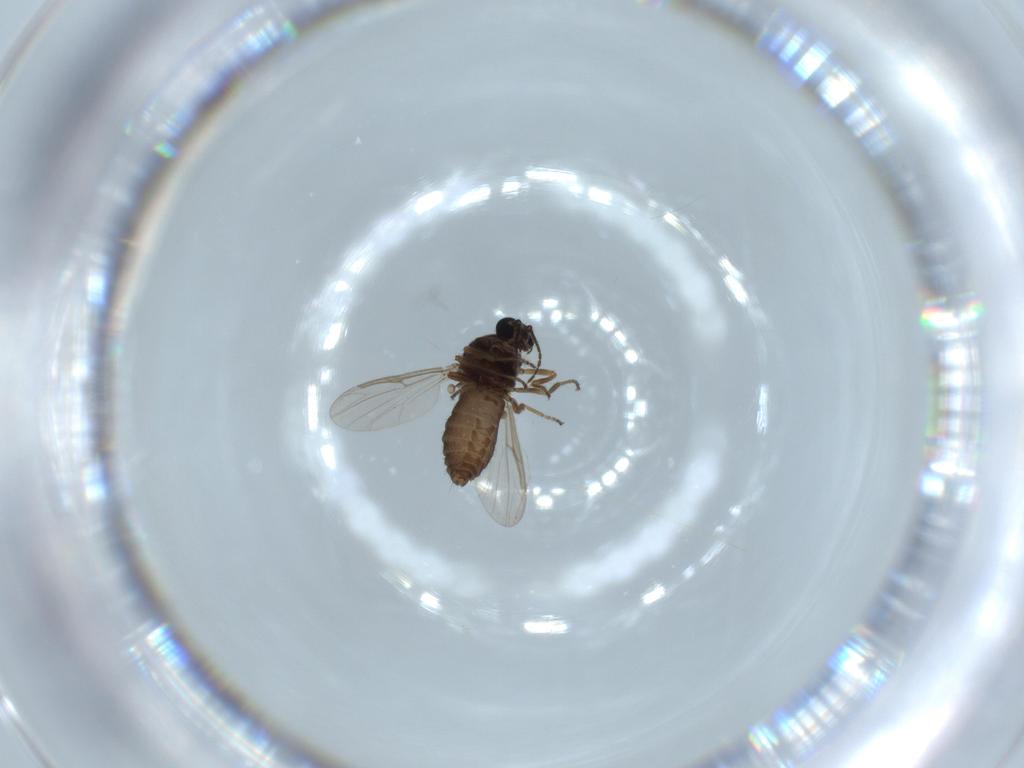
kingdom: Animalia
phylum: Arthropoda
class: Insecta
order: Diptera
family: Ceratopogonidae
